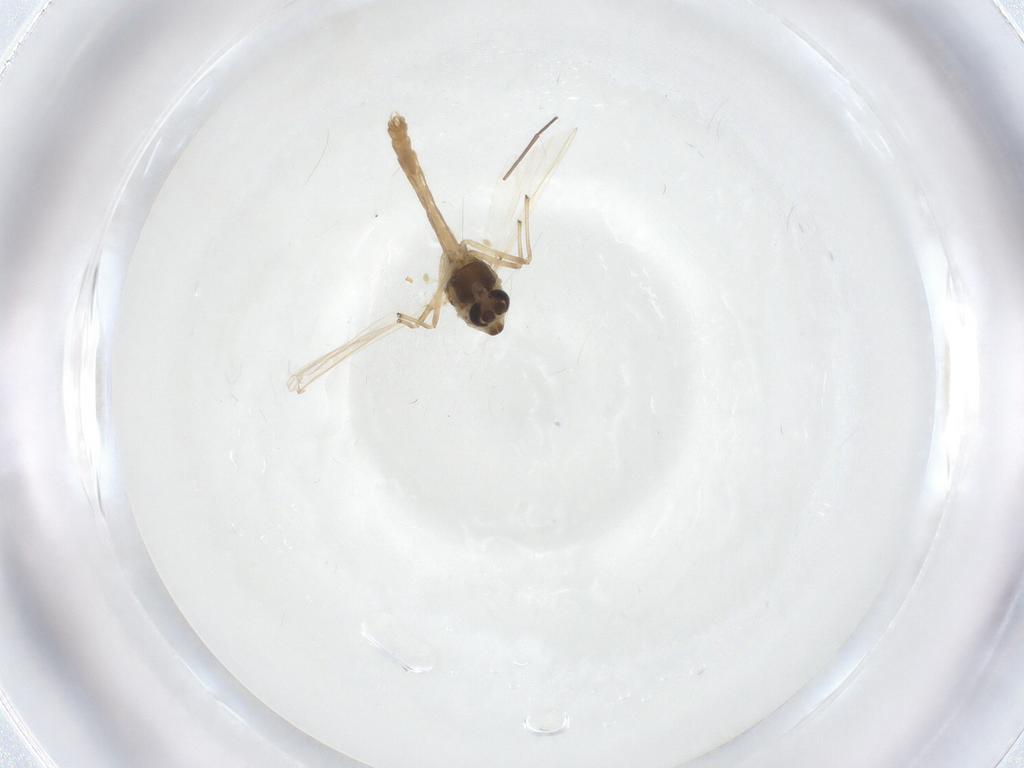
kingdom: Animalia
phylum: Arthropoda
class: Insecta
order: Diptera
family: Chironomidae
